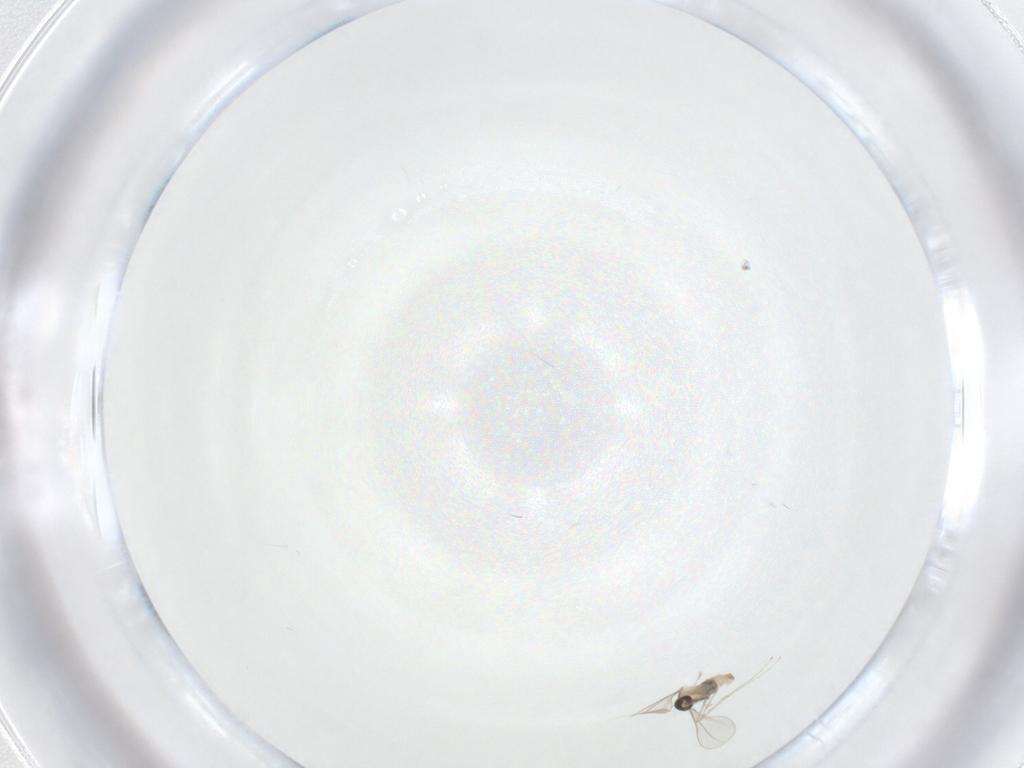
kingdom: Animalia
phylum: Arthropoda
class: Insecta
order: Diptera
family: Cecidomyiidae
